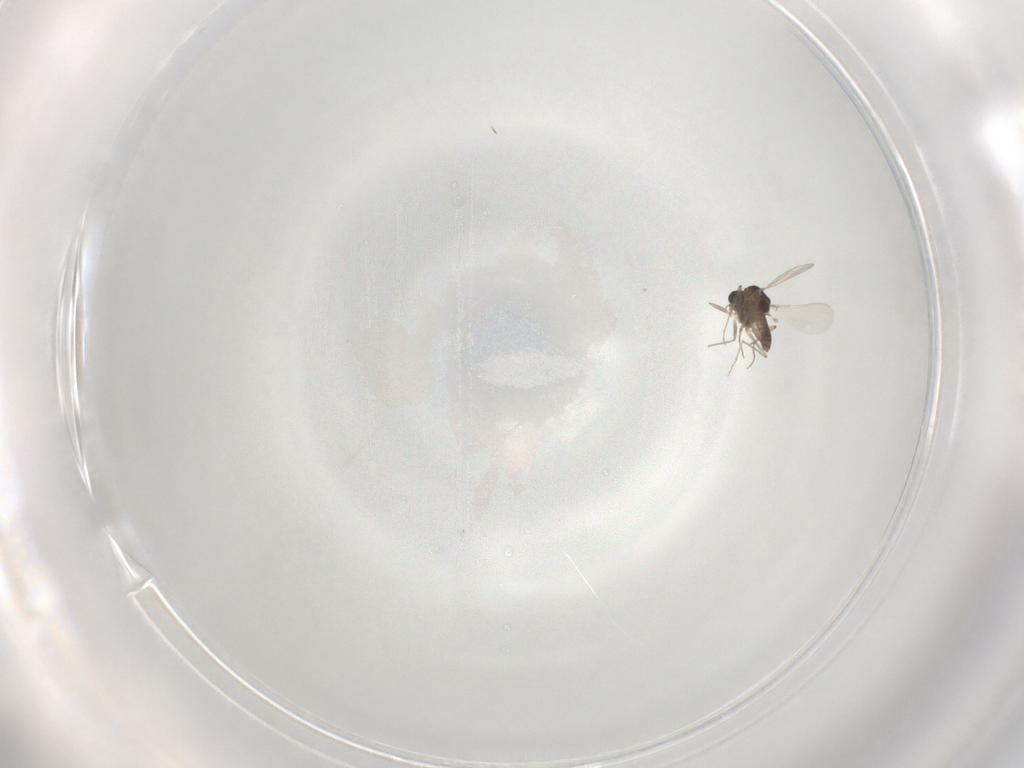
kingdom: Animalia
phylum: Arthropoda
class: Insecta
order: Diptera
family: Chironomidae
